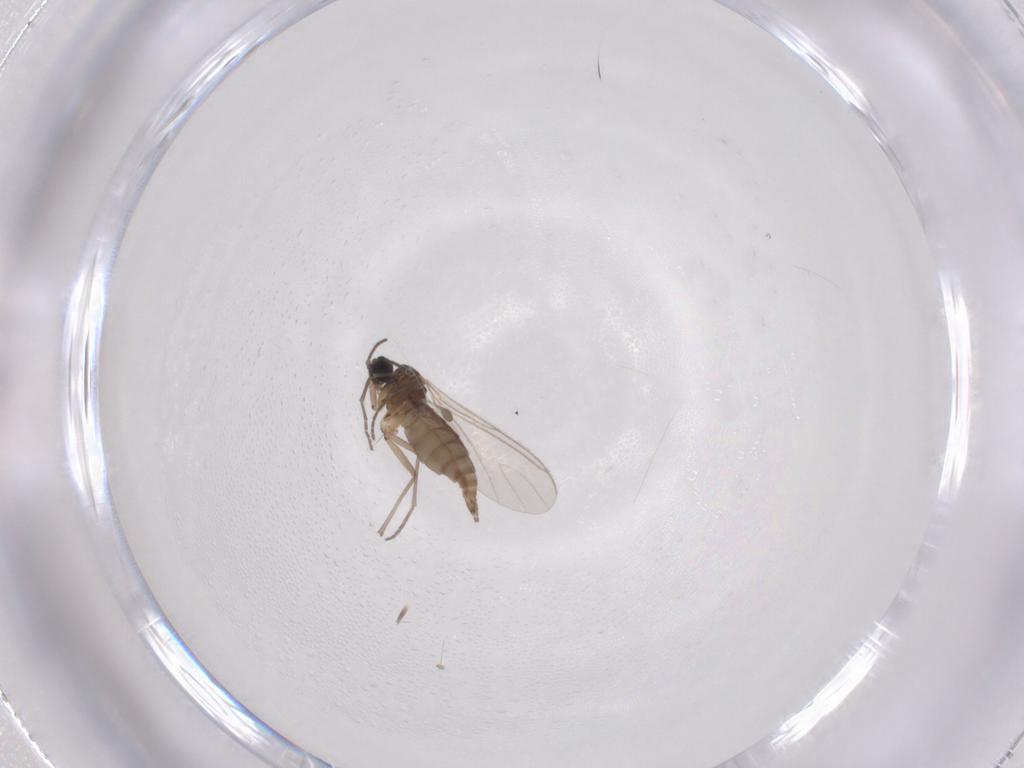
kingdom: Animalia
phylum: Arthropoda
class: Insecta
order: Diptera
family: Sciaridae
